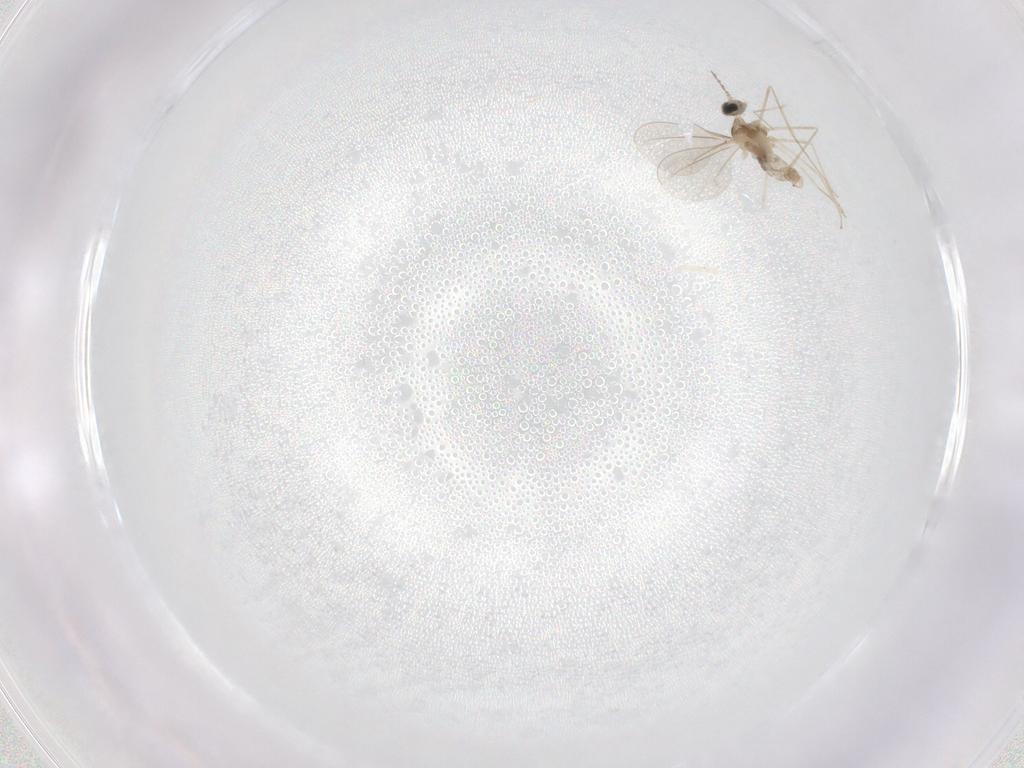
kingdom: Animalia
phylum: Arthropoda
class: Insecta
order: Diptera
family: Cecidomyiidae
